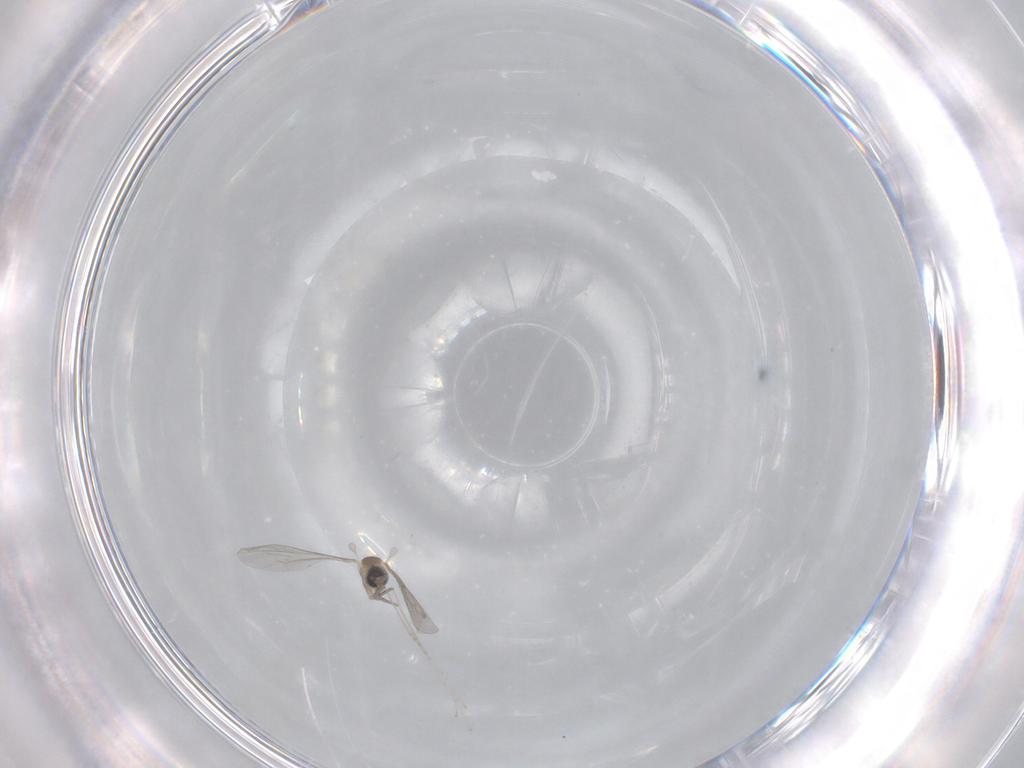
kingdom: Animalia
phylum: Arthropoda
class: Insecta
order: Diptera
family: Cecidomyiidae
